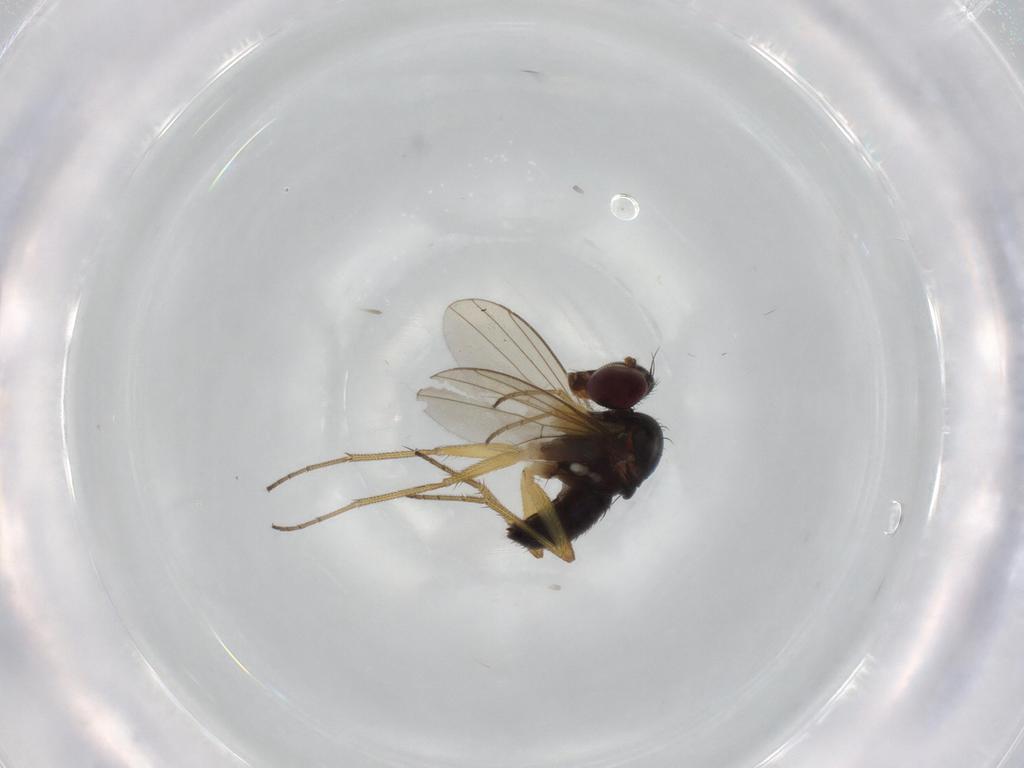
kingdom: Animalia
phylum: Arthropoda
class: Insecta
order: Diptera
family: Dolichopodidae
